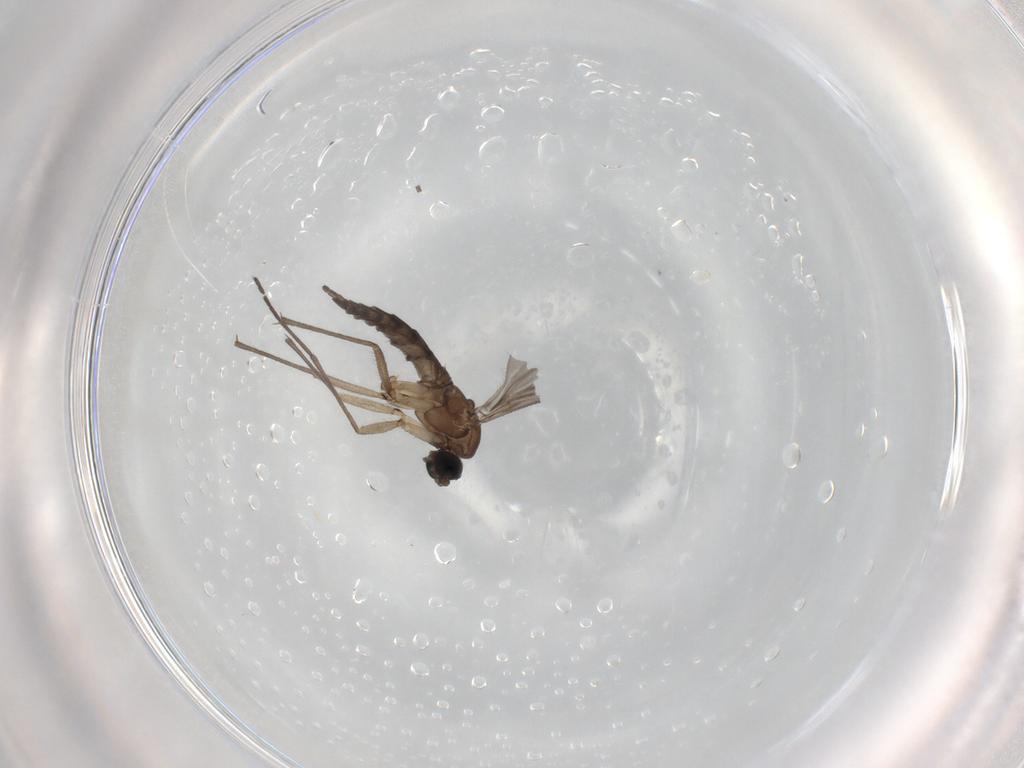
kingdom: Animalia
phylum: Arthropoda
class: Insecta
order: Diptera
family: Sciaridae
